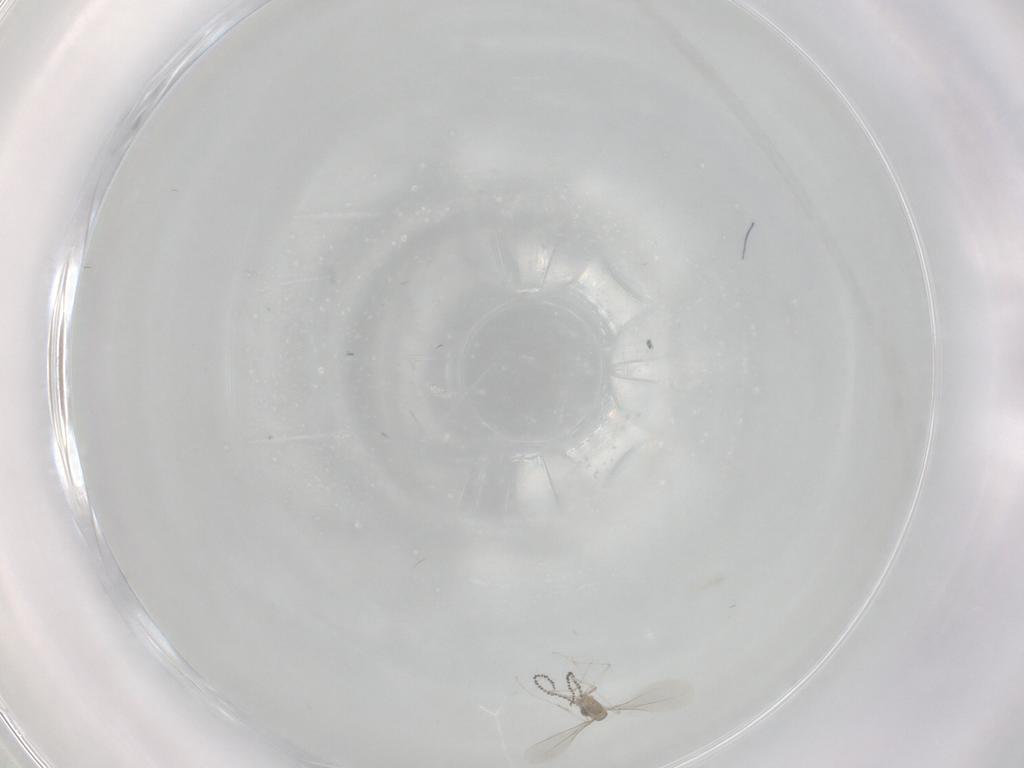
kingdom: Animalia
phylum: Arthropoda
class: Insecta
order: Diptera
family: Cecidomyiidae
